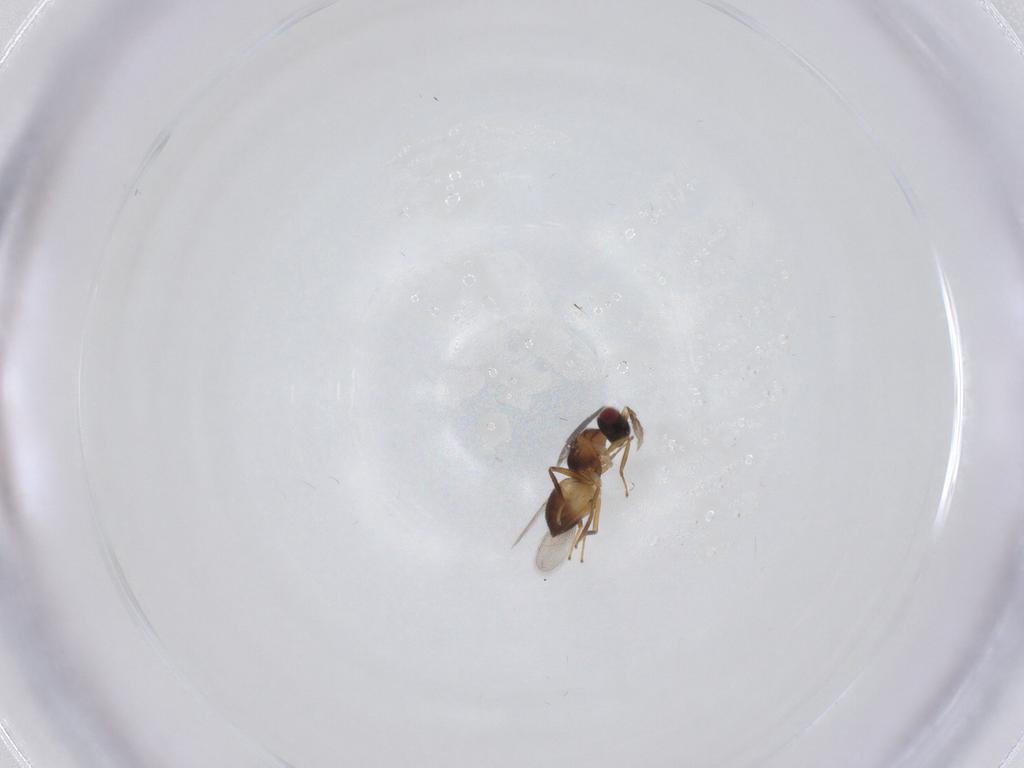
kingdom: Animalia
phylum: Arthropoda
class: Insecta
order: Hymenoptera
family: Eulophidae
